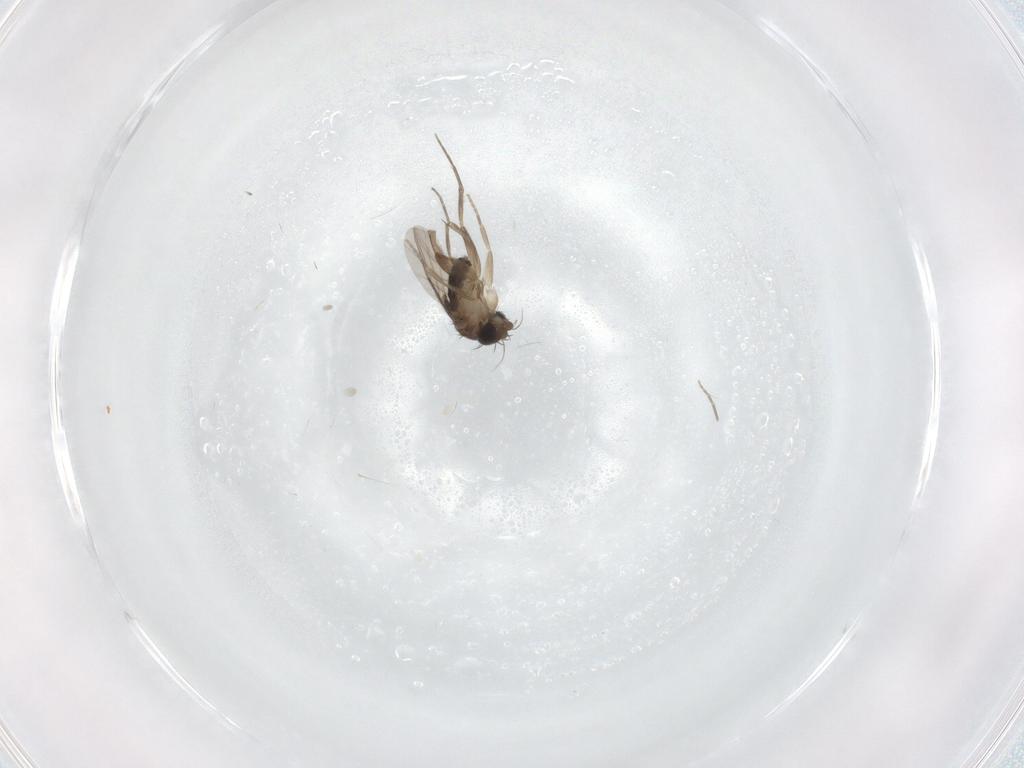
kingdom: Animalia
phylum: Arthropoda
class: Insecta
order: Diptera
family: Phoridae
